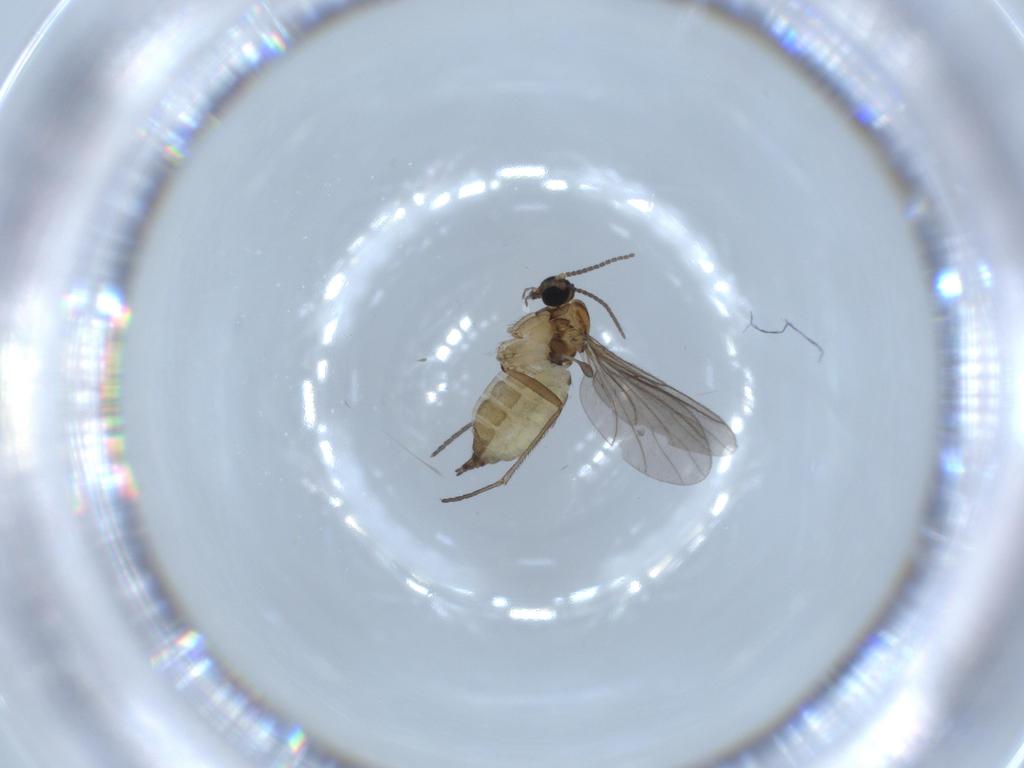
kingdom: Animalia
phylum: Arthropoda
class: Insecta
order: Diptera
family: Sciaridae
